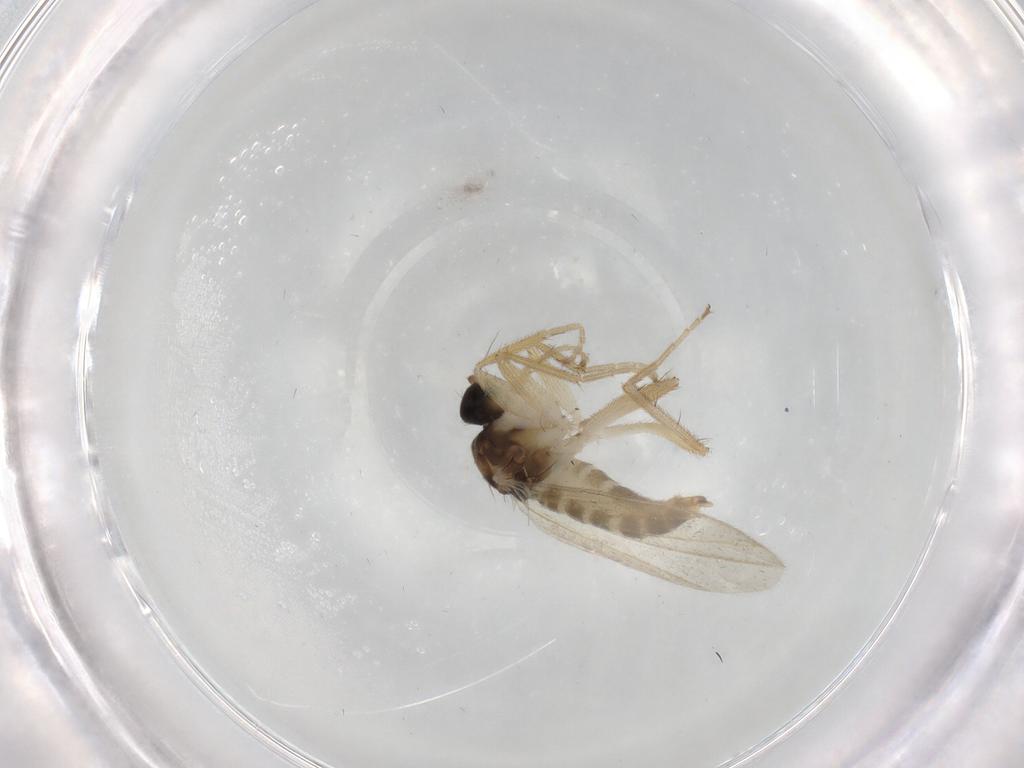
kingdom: Animalia
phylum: Arthropoda
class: Insecta
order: Diptera
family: Hybotidae
